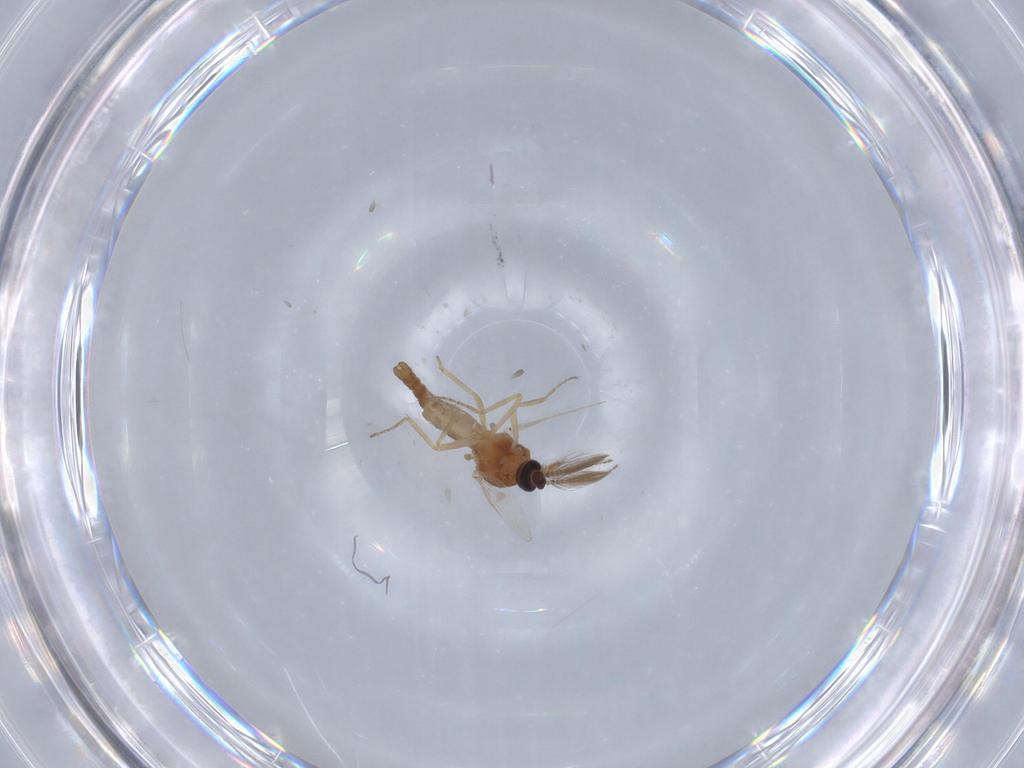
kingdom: Animalia
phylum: Arthropoda
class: Insecta
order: Diptera
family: Ceratopogonidae
